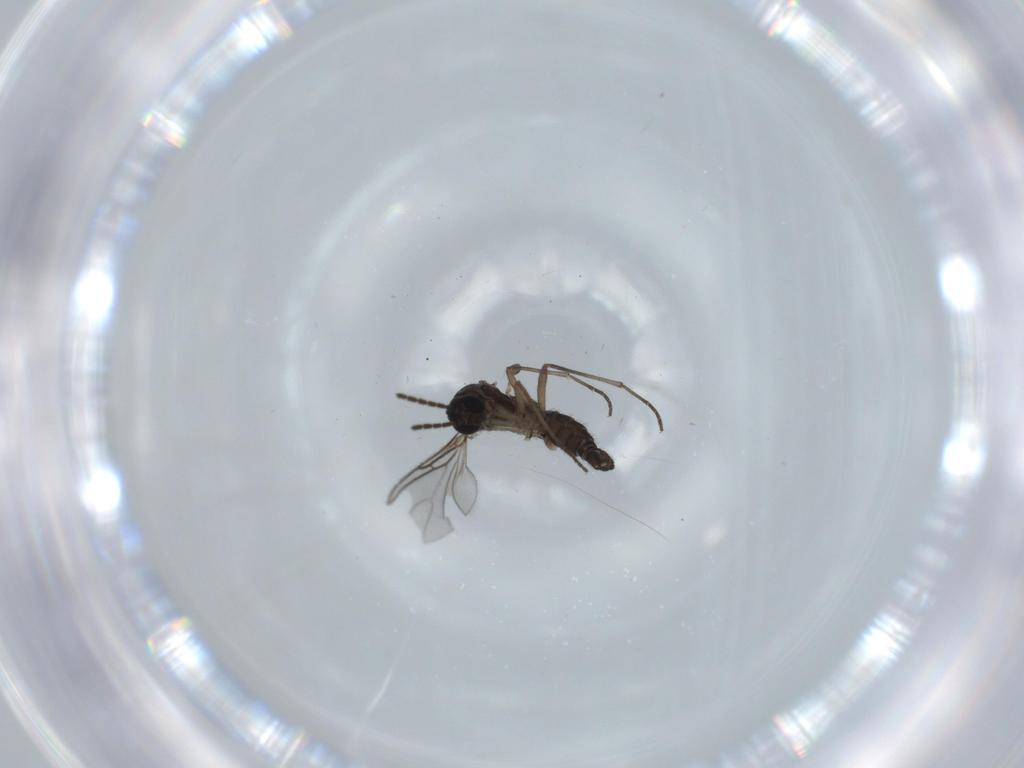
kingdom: Animalia
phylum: Arthropoda
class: Insecta
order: Diptera
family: Sciaridae
